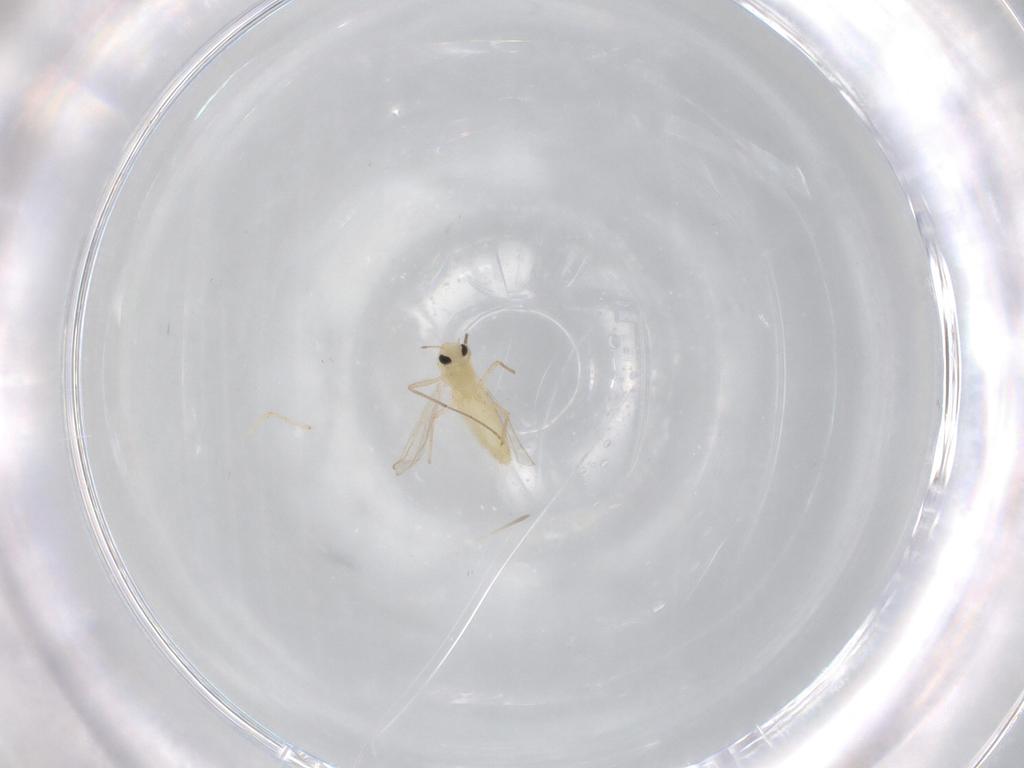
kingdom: Animalia
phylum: Arthropoda
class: Insecta
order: Diptera
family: Chironomidae
